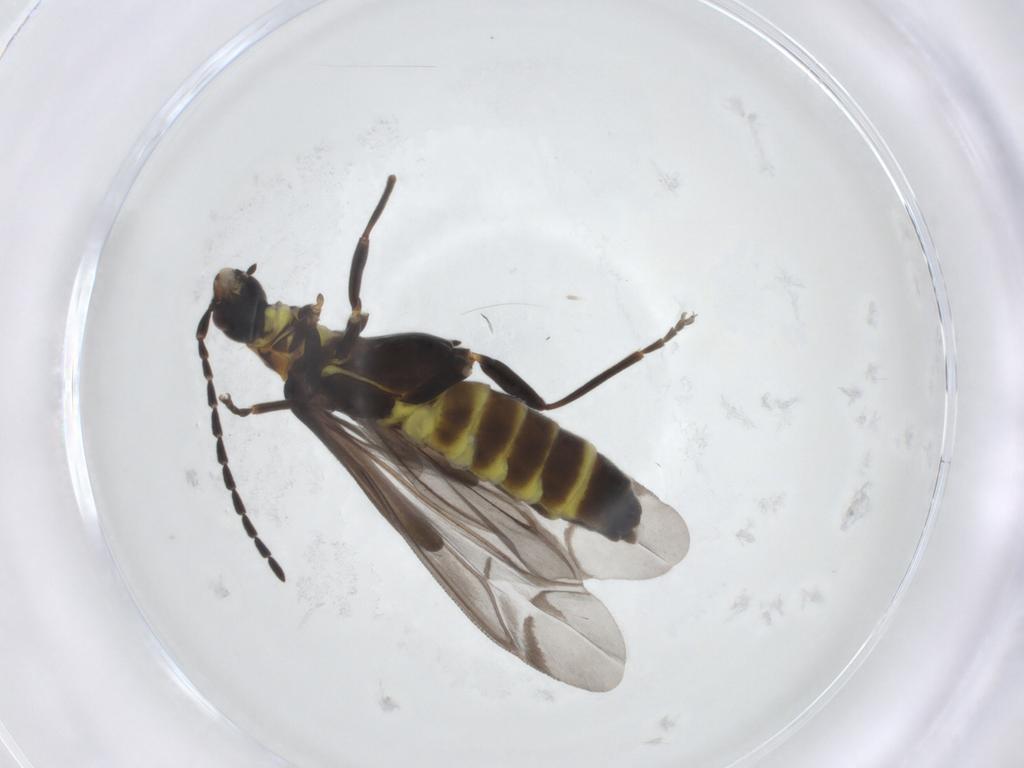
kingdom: Animalia
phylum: Arthropoda
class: Insecta
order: Coleoptera
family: Cantharidae
